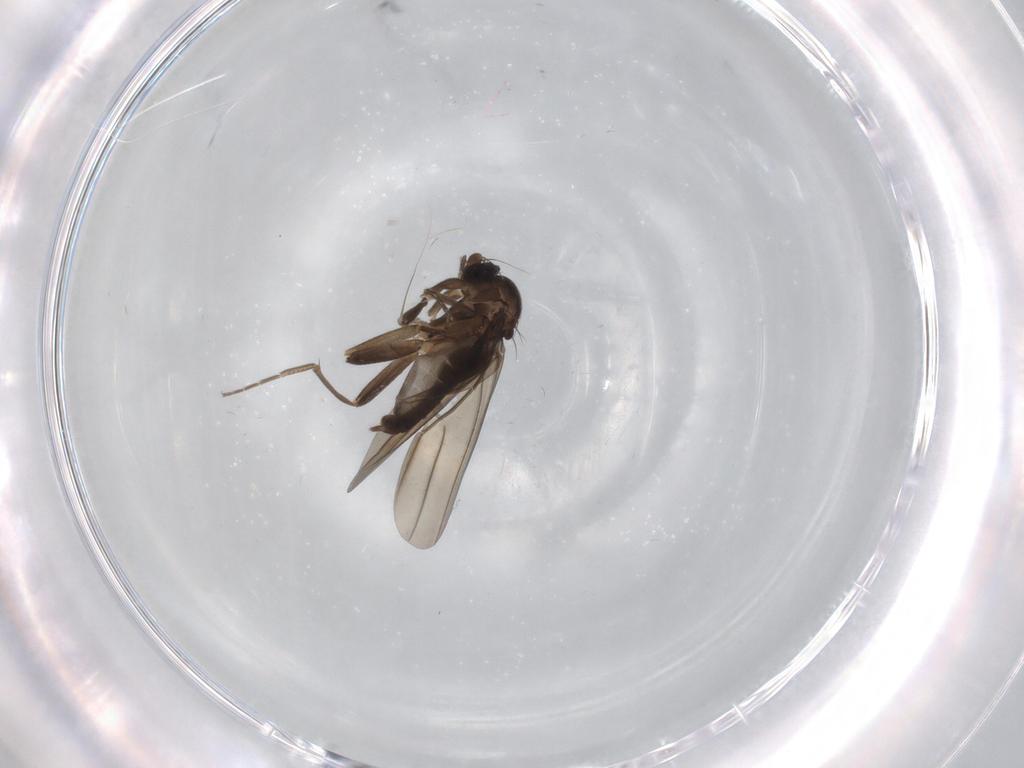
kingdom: Animalia
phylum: Arthropoda
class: Insecta
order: Diptera
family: Phoridae
